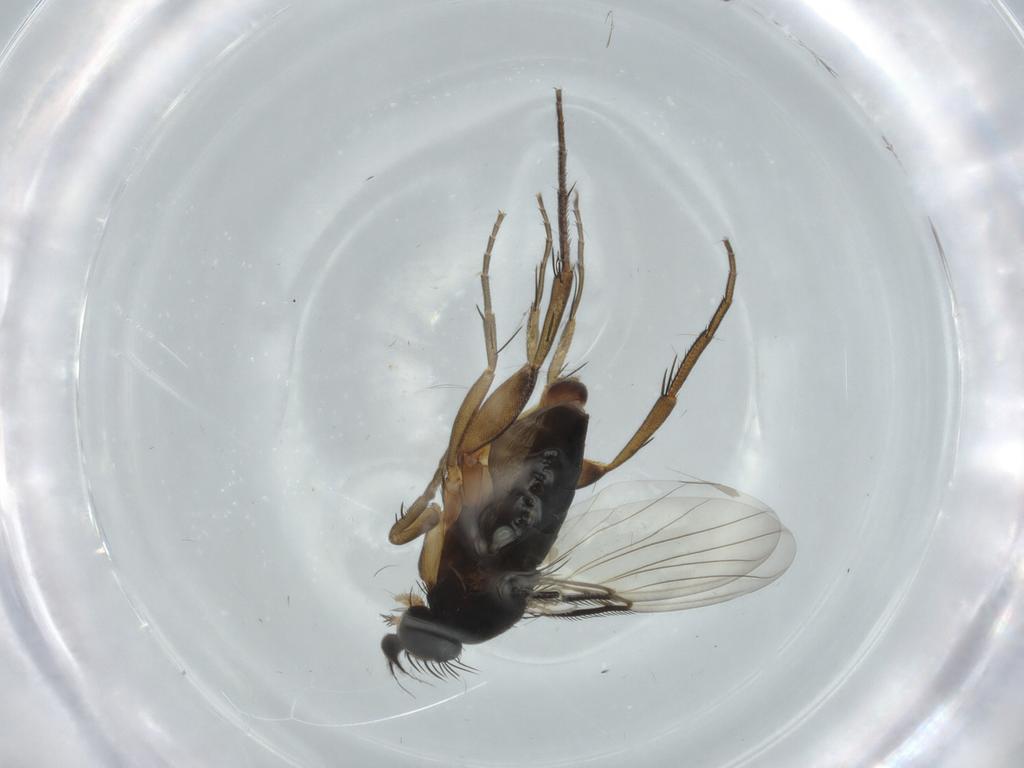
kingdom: Animalia
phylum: Arthropoda
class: Insecta
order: Diptera
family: Phoridae
